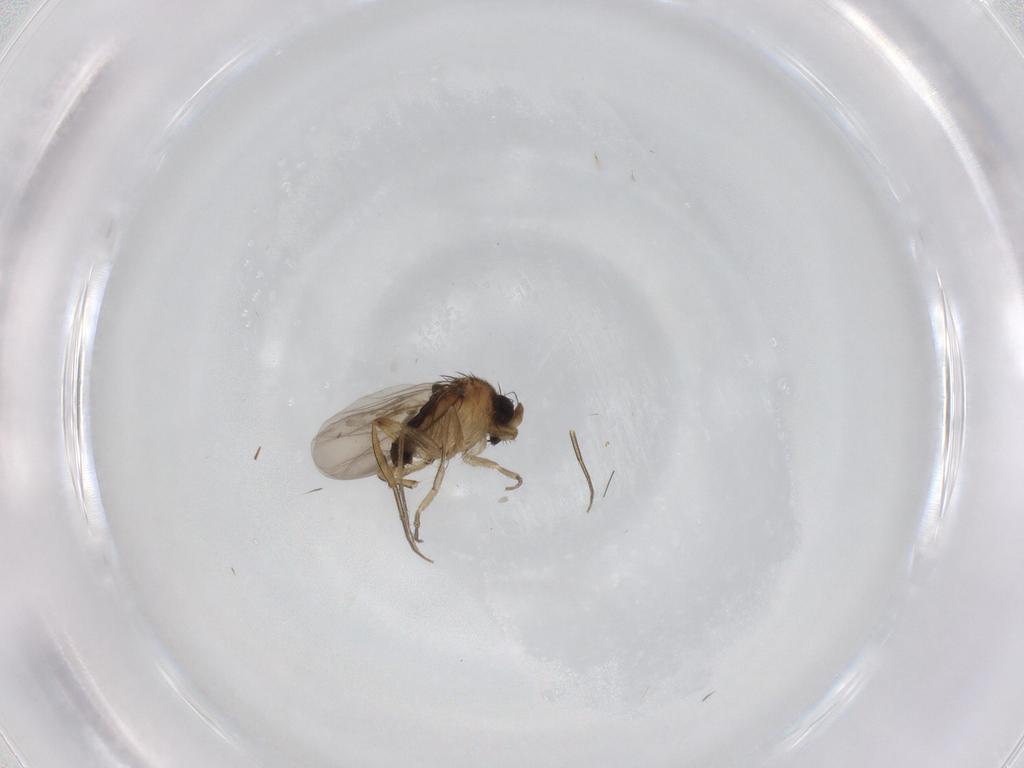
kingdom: Animalia
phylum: Arthropoda
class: Insecta
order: Diptera
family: Phoridae
